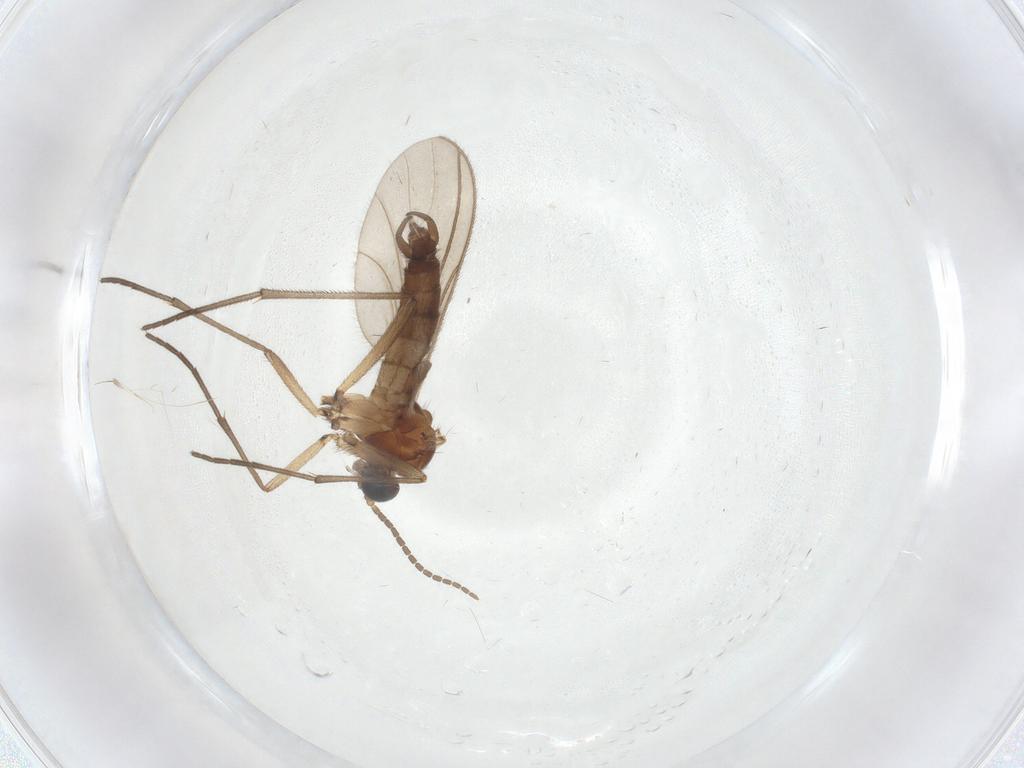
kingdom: Animalia
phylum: Arthropoda
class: Insecta
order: Diptera
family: Sciaridae
